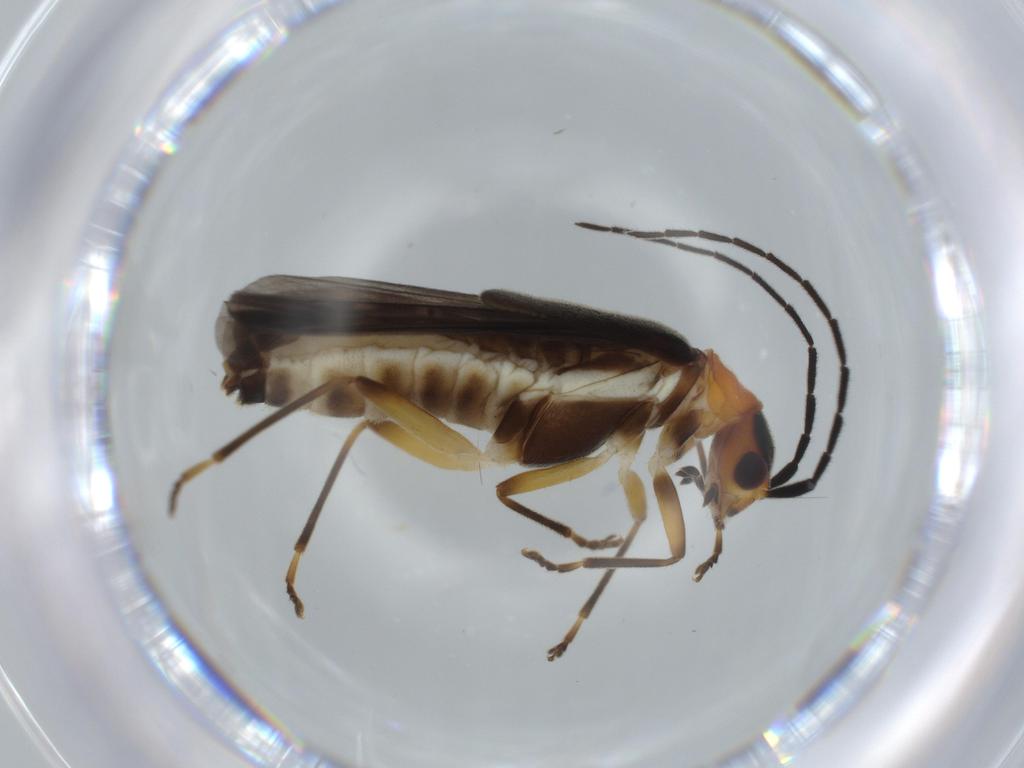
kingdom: Animalia
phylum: Arthropoda
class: Insecta
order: Coleoptera
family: Cantharidae
